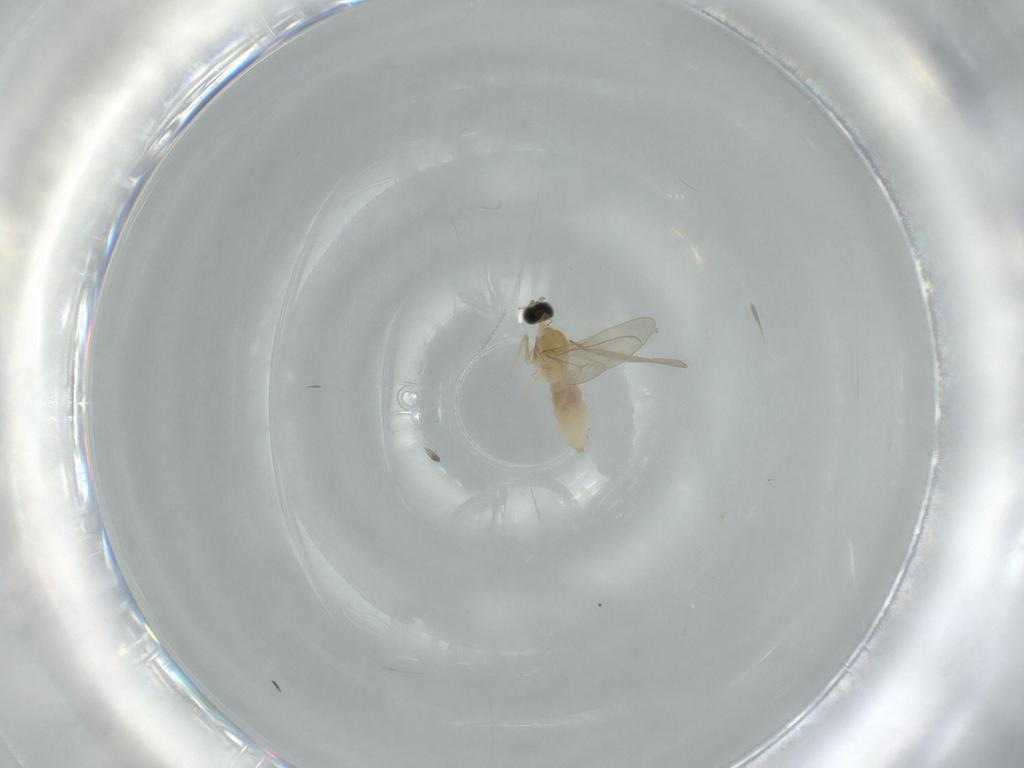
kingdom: Animalia
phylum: Arthropoda
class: Insecta
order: Diptera
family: Cecidomyiidae
